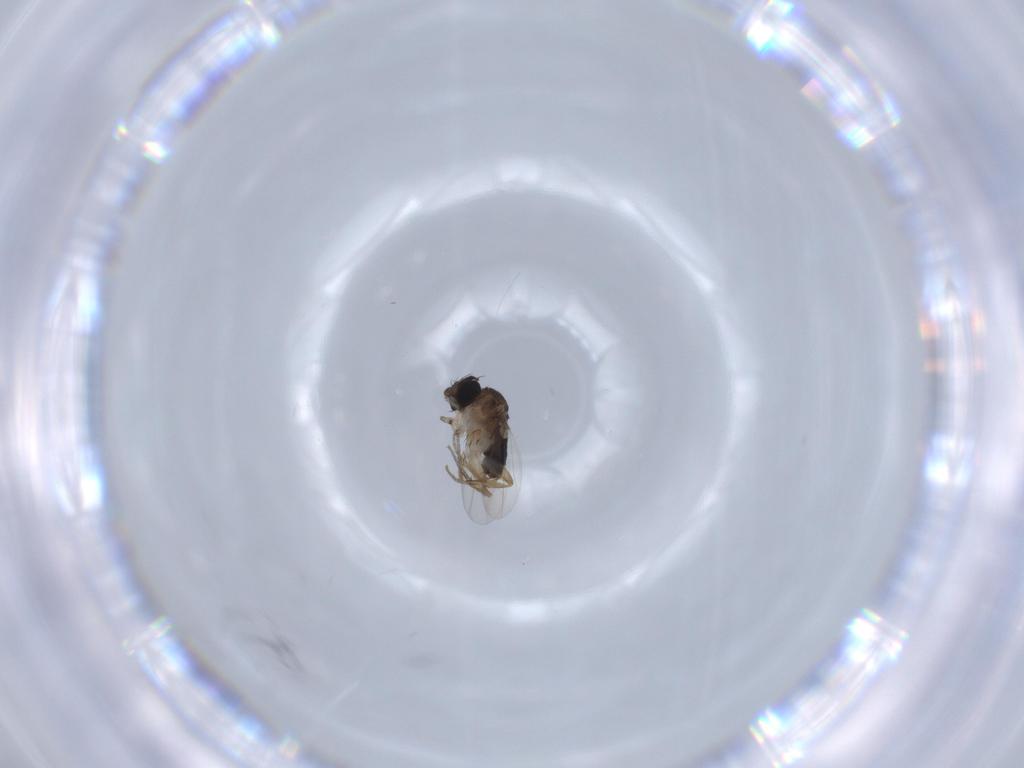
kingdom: Animalia
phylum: Arthropoda
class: Insecta
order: Diptera
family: Phoridae
